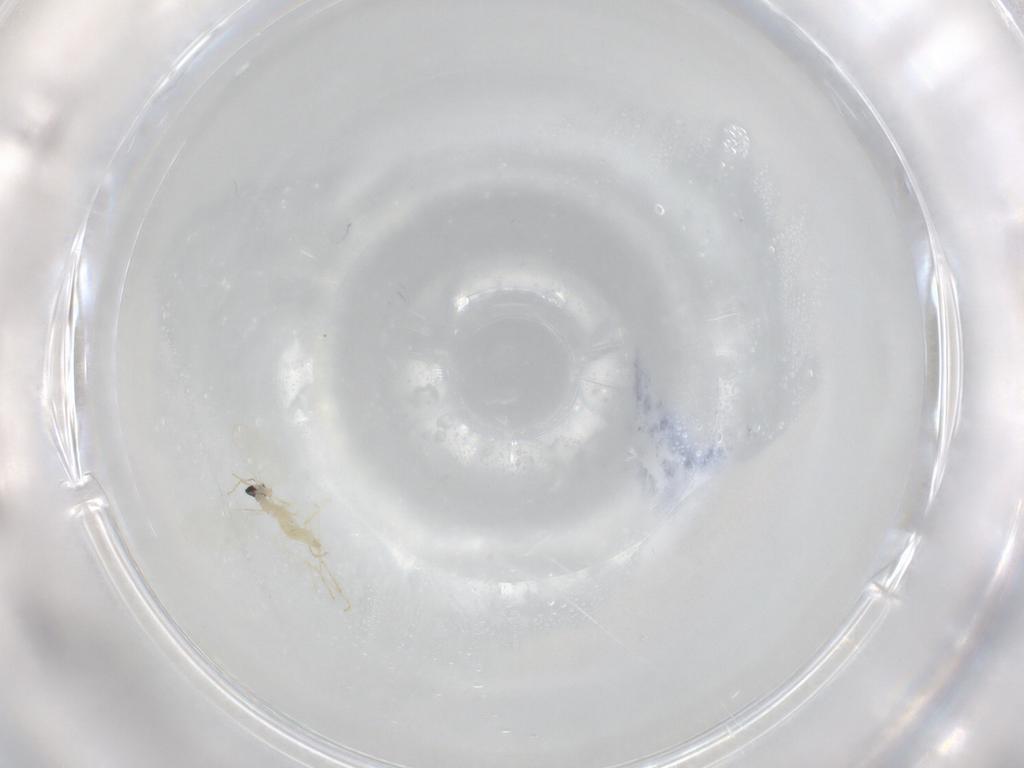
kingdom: Animalia
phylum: Arthropoda
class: Insecta
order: Diptera
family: Cecidomyiidae
